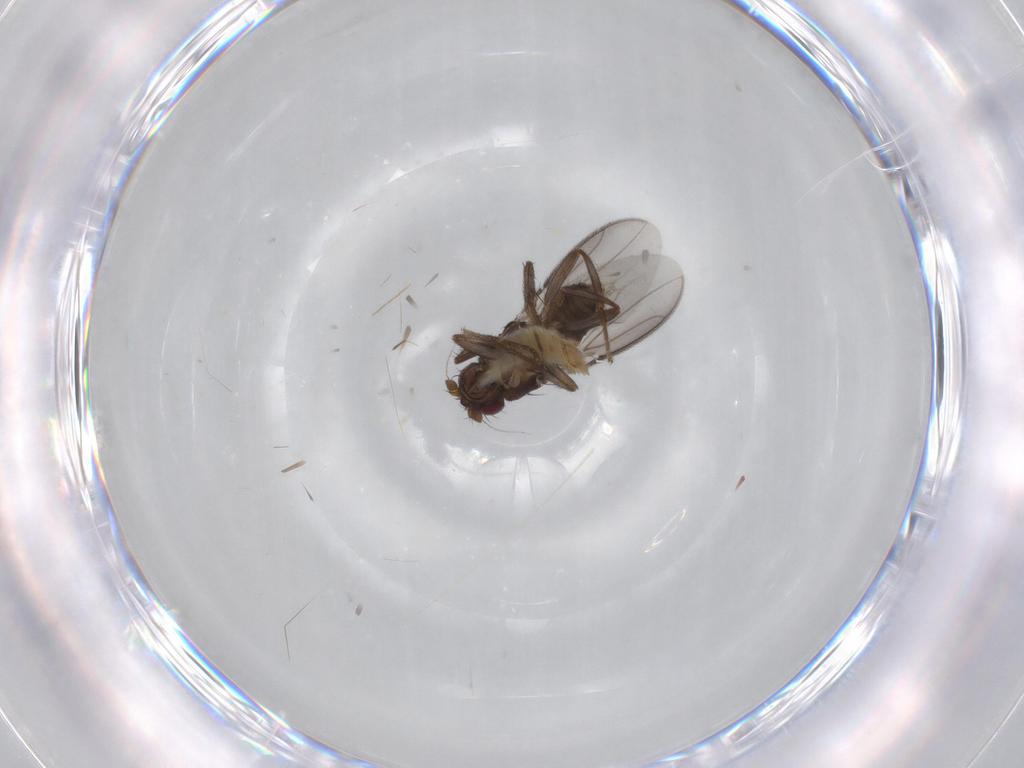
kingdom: Animalia
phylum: Arthropoda
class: Insecta
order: Diptera
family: Sphaeroceridae
